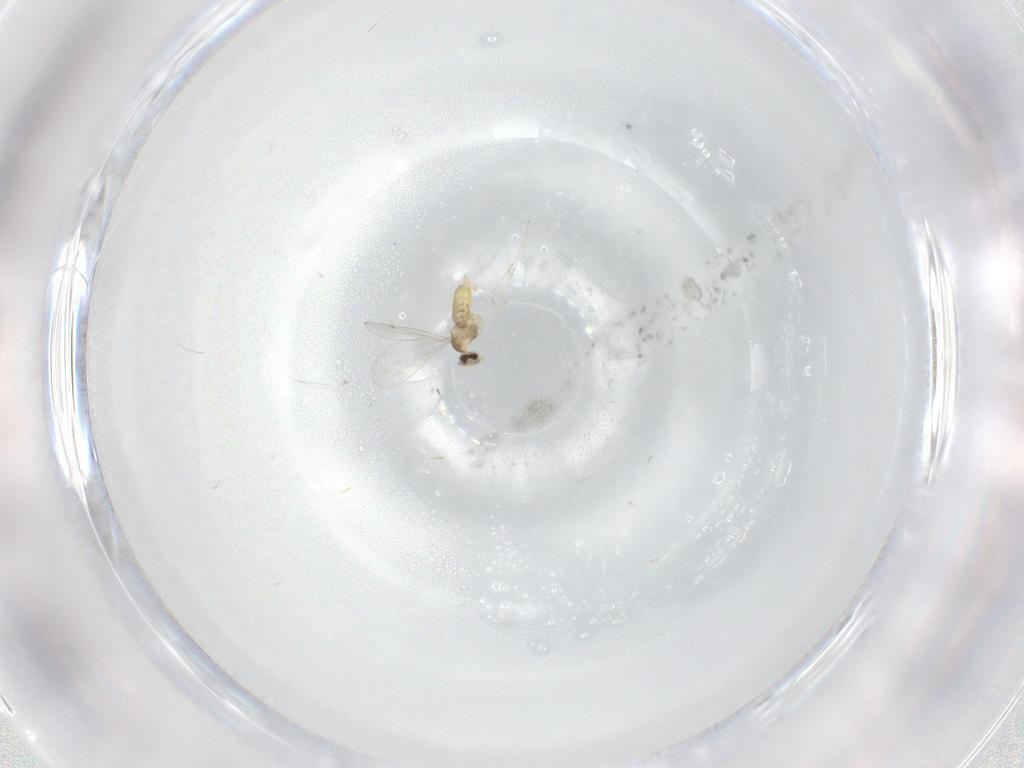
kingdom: Animalia
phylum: Arthropoda
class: Insecta
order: Diptera
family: Cecidomyiidae
